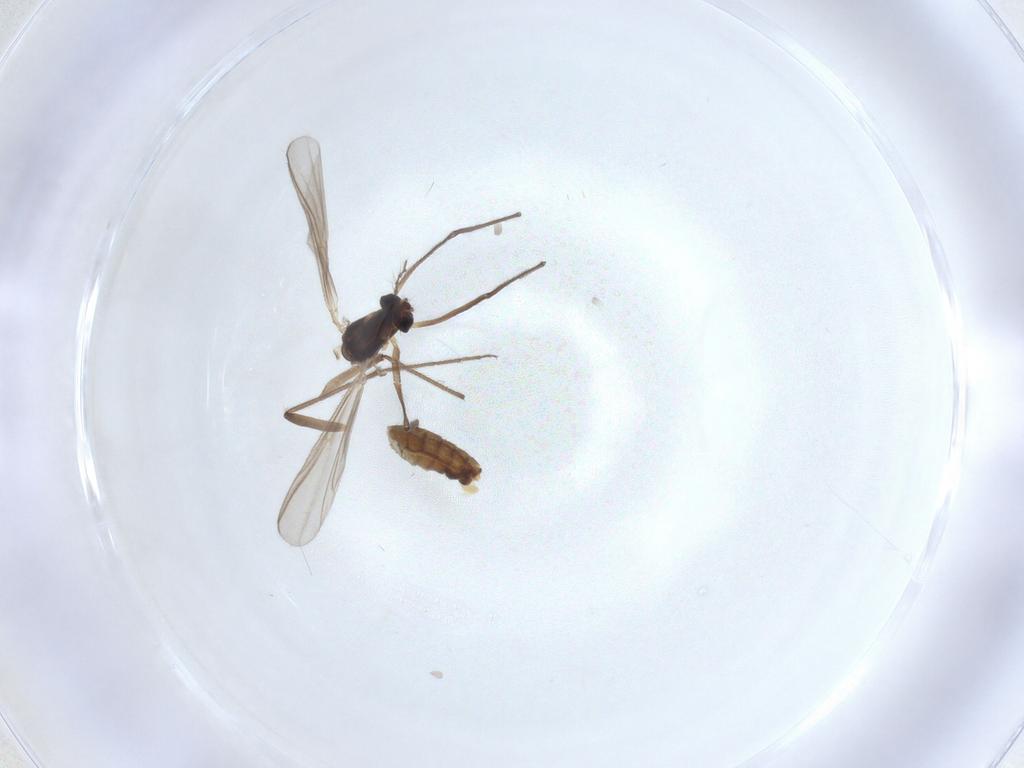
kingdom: Animalia
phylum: Arthropoda
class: Insecta
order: Diptera
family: Chironomidae
